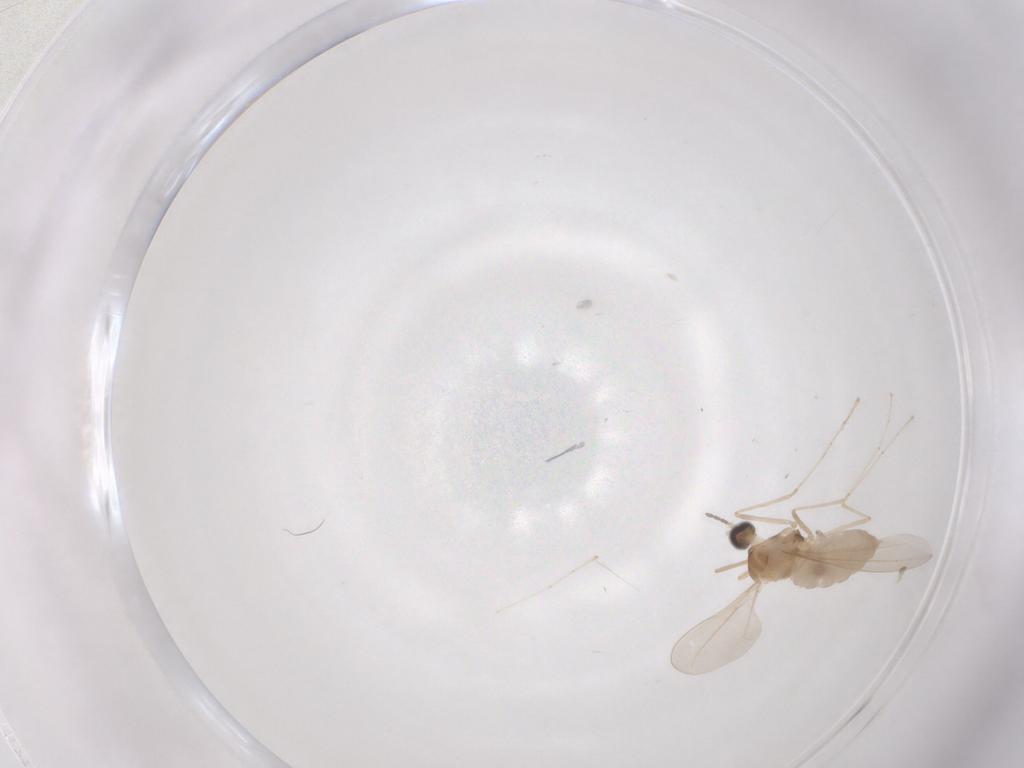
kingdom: Animalia
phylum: Arthropoda
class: Insecta
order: Diptera
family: Cecidomyiidae
